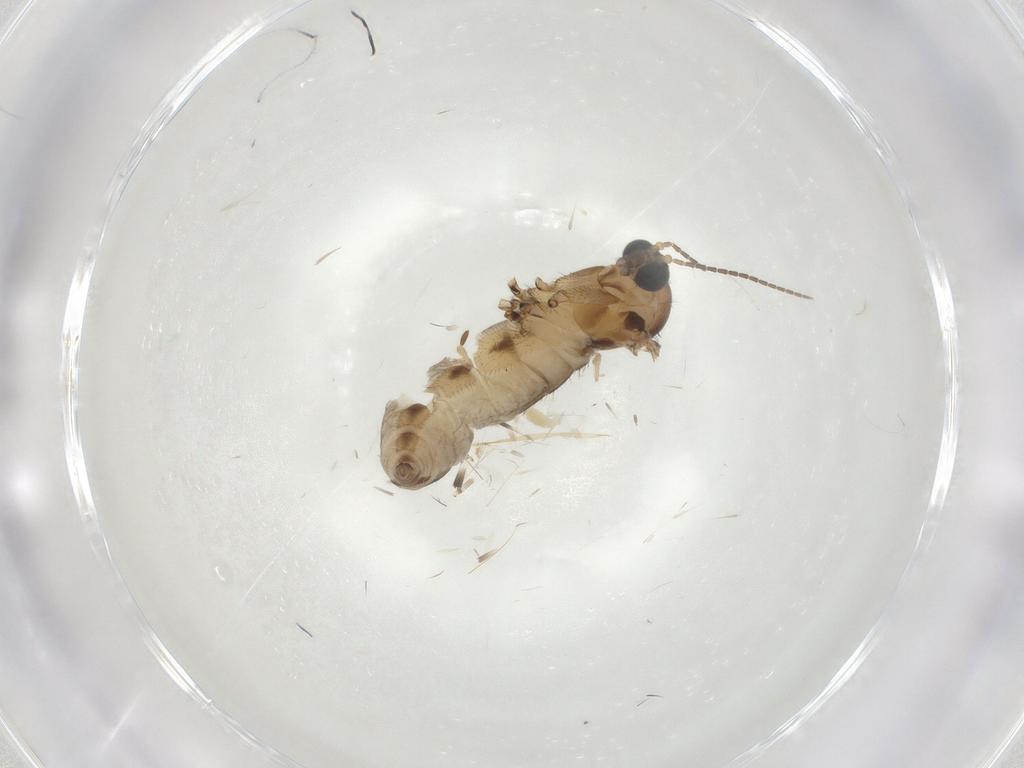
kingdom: Animalia
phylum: Arthropoda
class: Insecta
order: Diptera
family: Sciaridae
